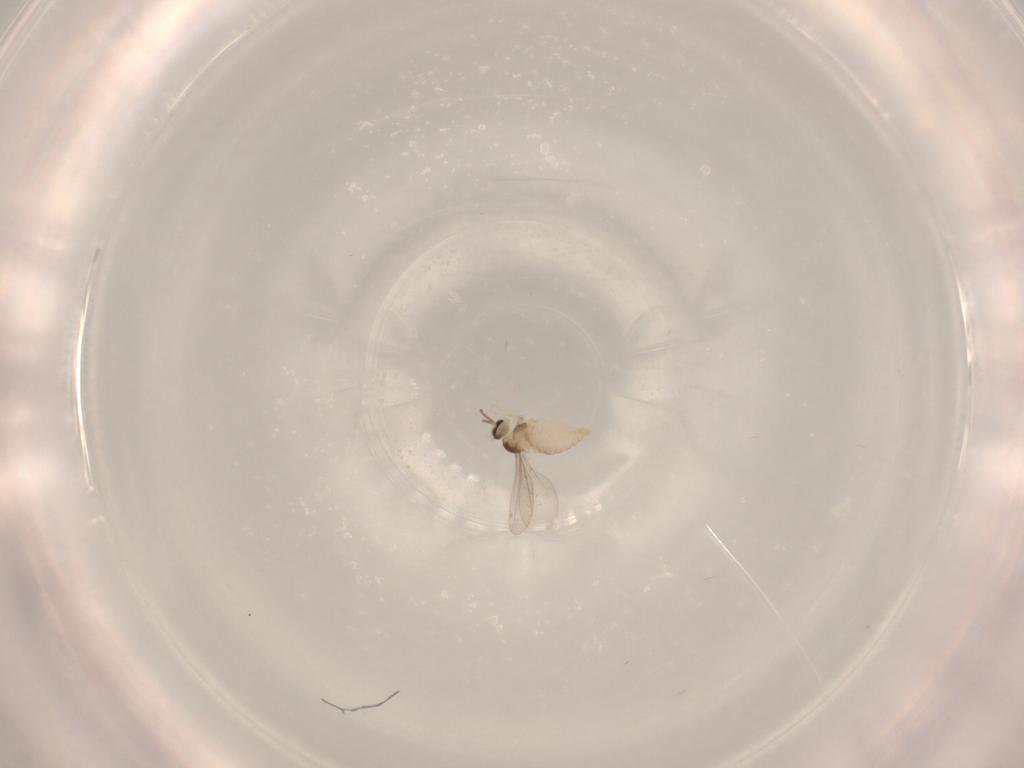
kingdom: Animalia
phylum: Arthropoda
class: Insecta
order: Diptera
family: Cecidomyiidae
